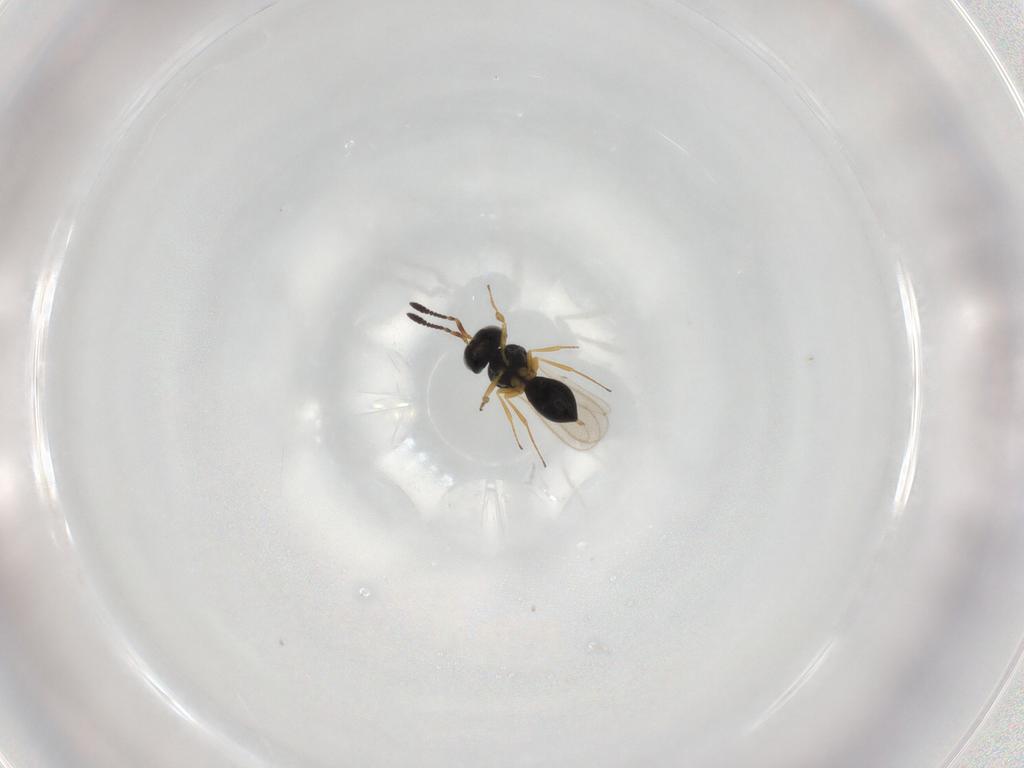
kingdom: Animalia
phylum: Arthropoda
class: Insecta
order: Hymenoptera
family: Scelionidae
